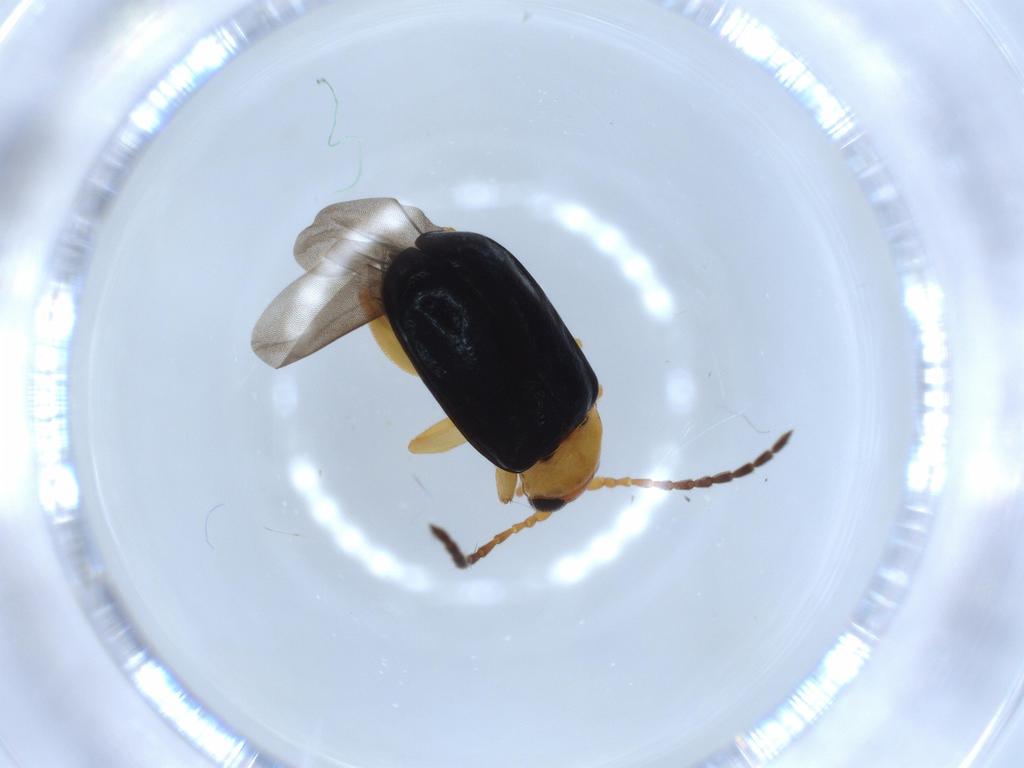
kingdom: Animalia
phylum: Arthropoda
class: Insecta
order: Coleoptera
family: Chrysomelidae
